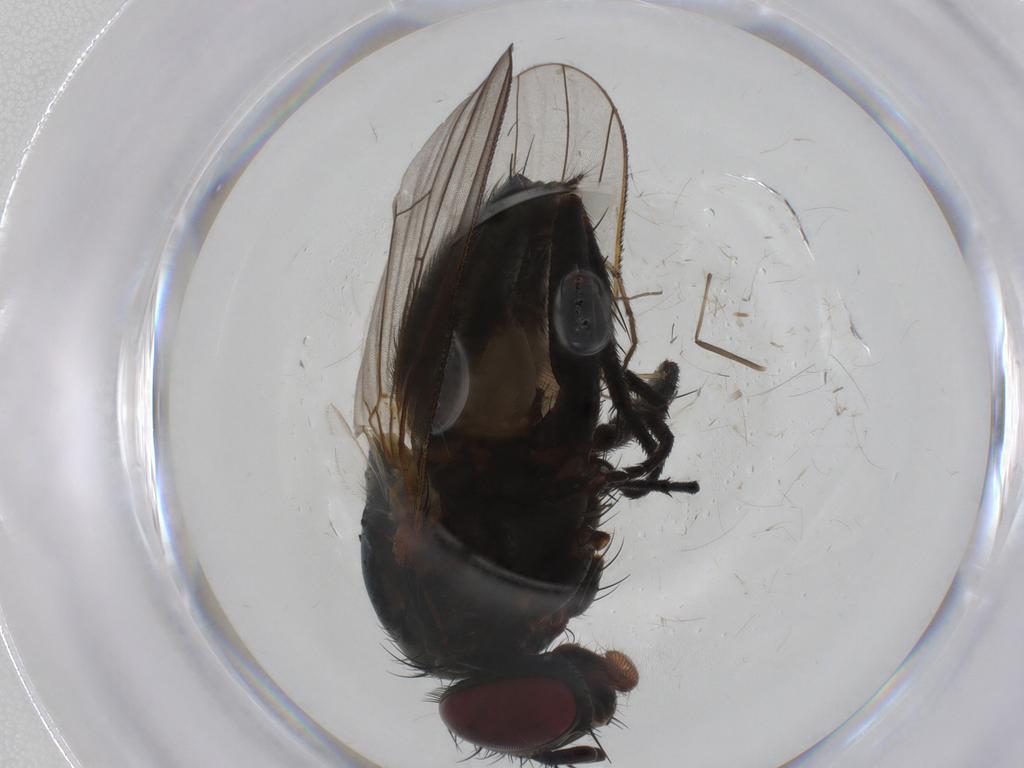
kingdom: Animalia
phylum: Arthropoda
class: Insecta
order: Diptera
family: Fannia
